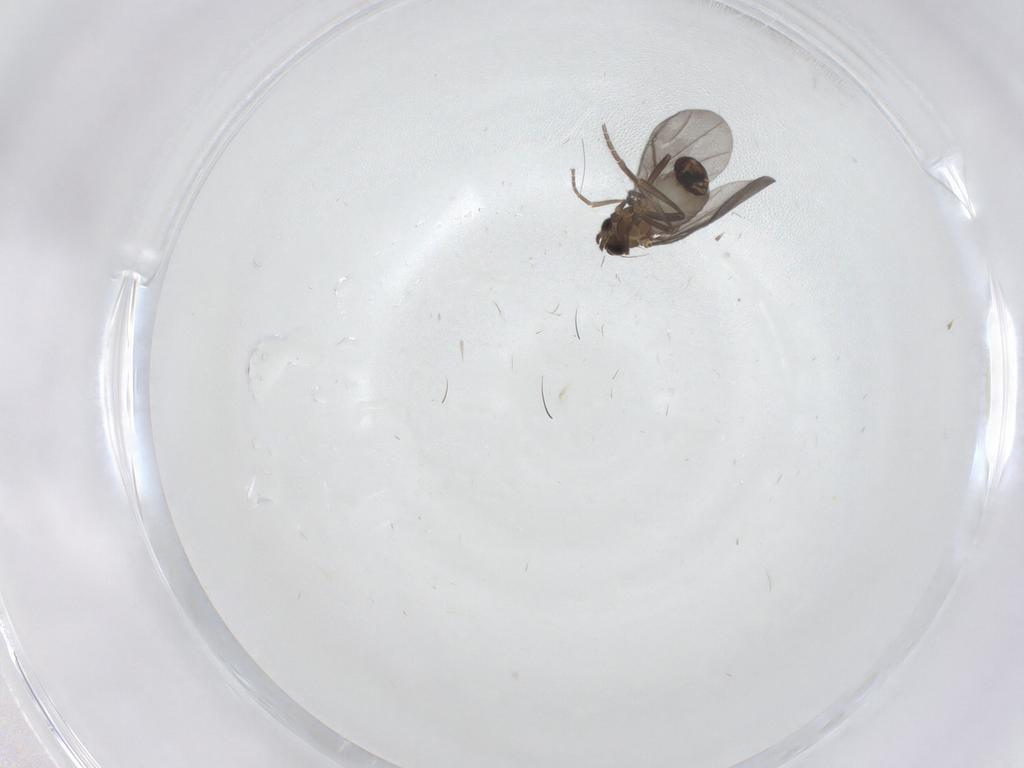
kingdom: Animalia
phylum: Arthropoda
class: Insecta
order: Diptera
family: Phoridae
